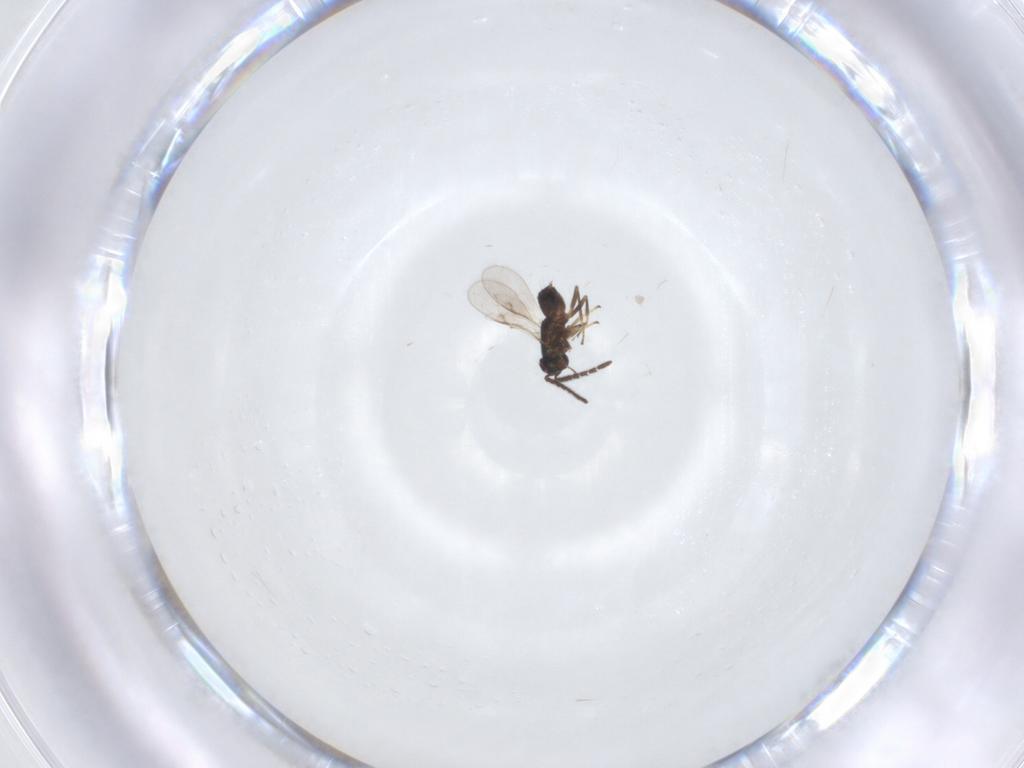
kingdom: Animalia
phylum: Arthropoda
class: Insecta
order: Hymenoptera
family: Encyrtidae
